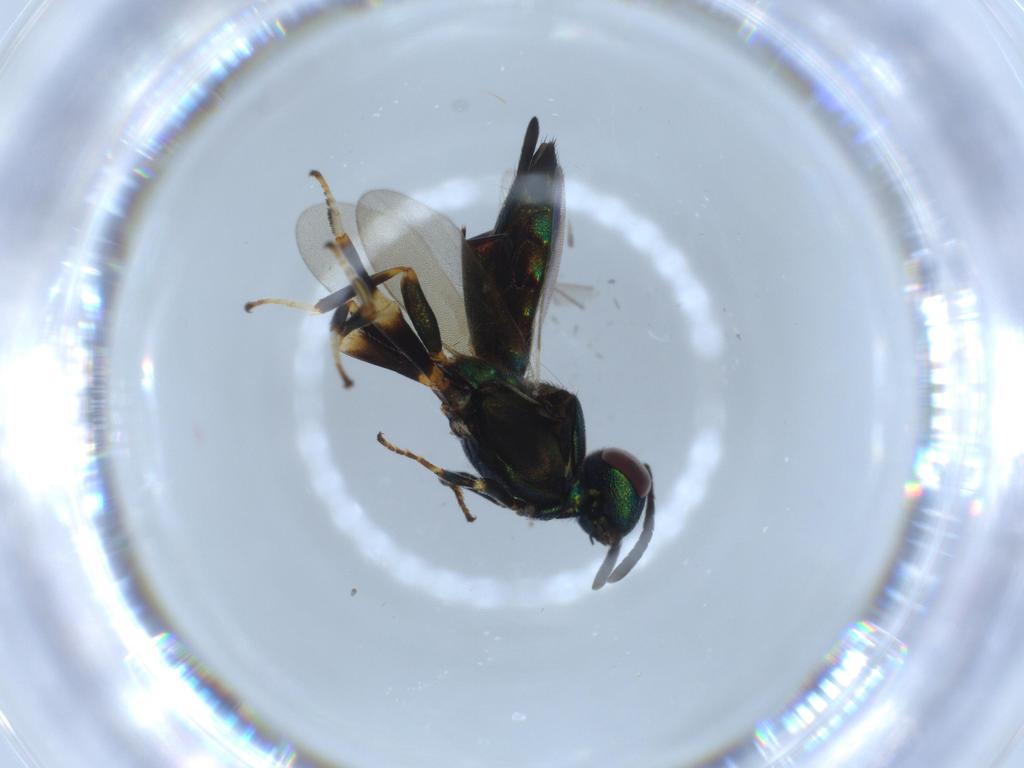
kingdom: Animalia
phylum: Arthropoda
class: Insecta
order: Hymenoptera
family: Eupelmidae
